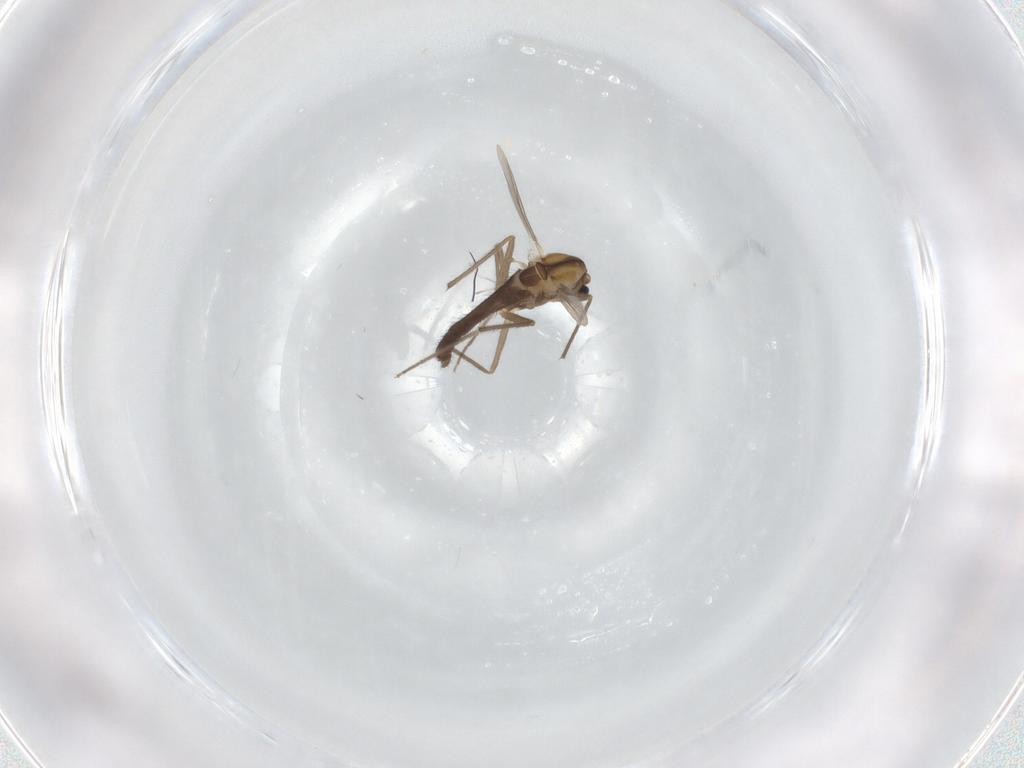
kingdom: Animalia
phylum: Arthropoda
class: Insecta
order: Diptera
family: Chironomidae
